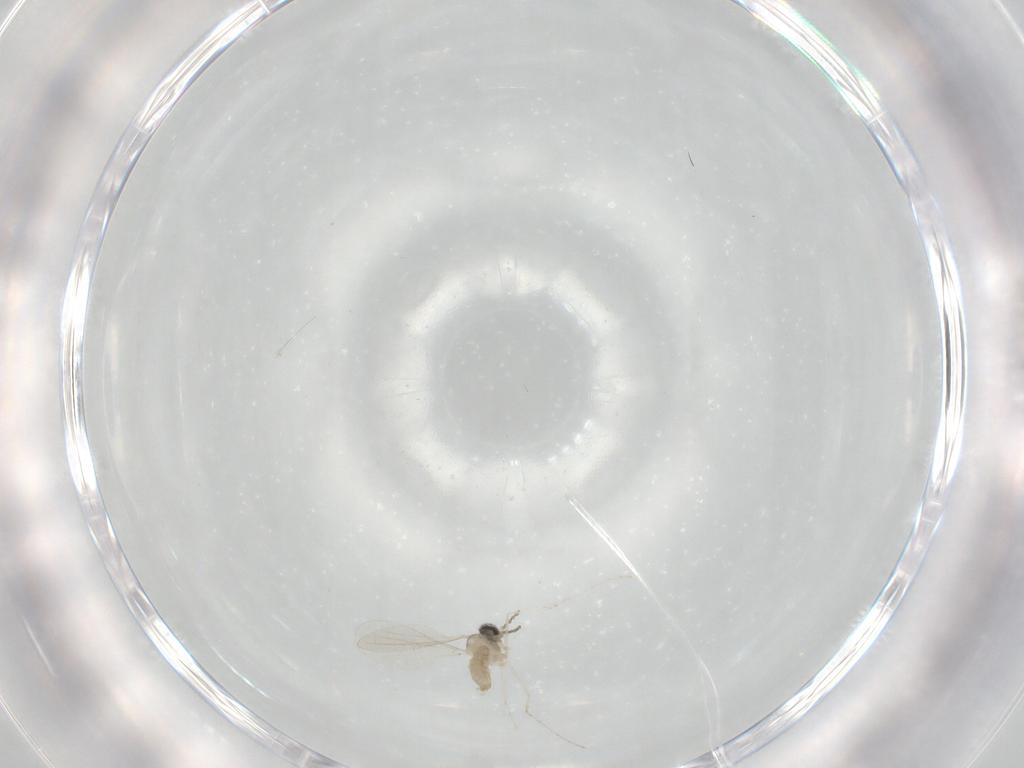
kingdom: Animalia
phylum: Arthropoda
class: Insecta
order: Diptera
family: Cecidomyiidae
